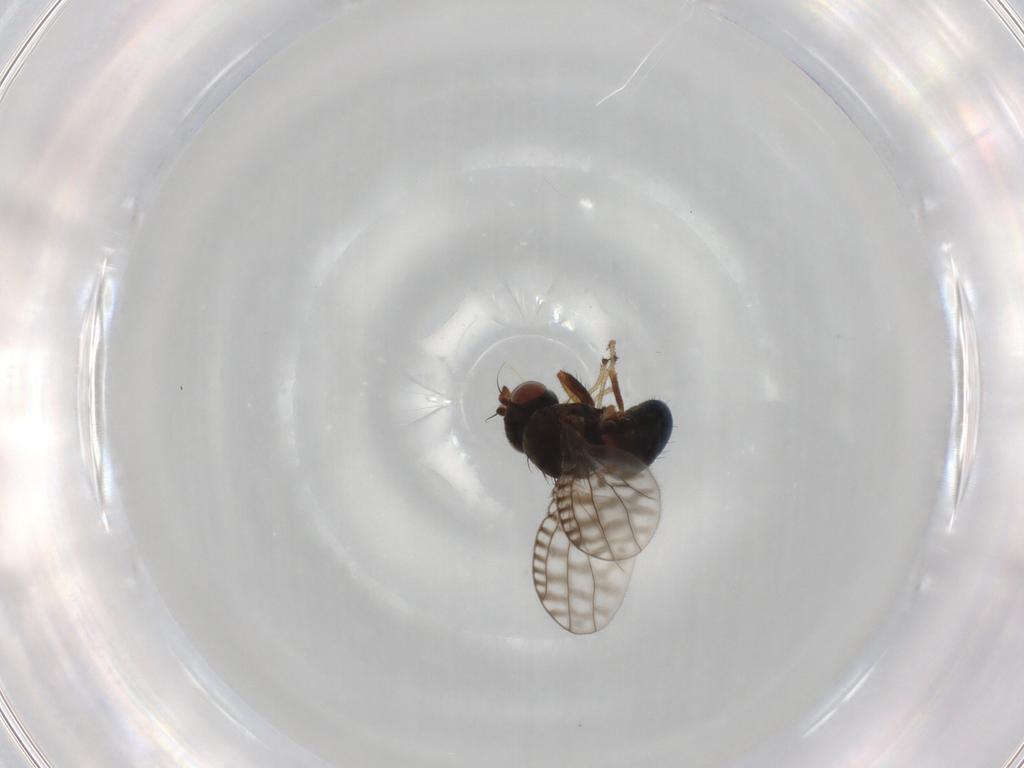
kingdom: Animalia
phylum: Arthropoda
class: Insecta
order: Diptera
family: Ephydridae
